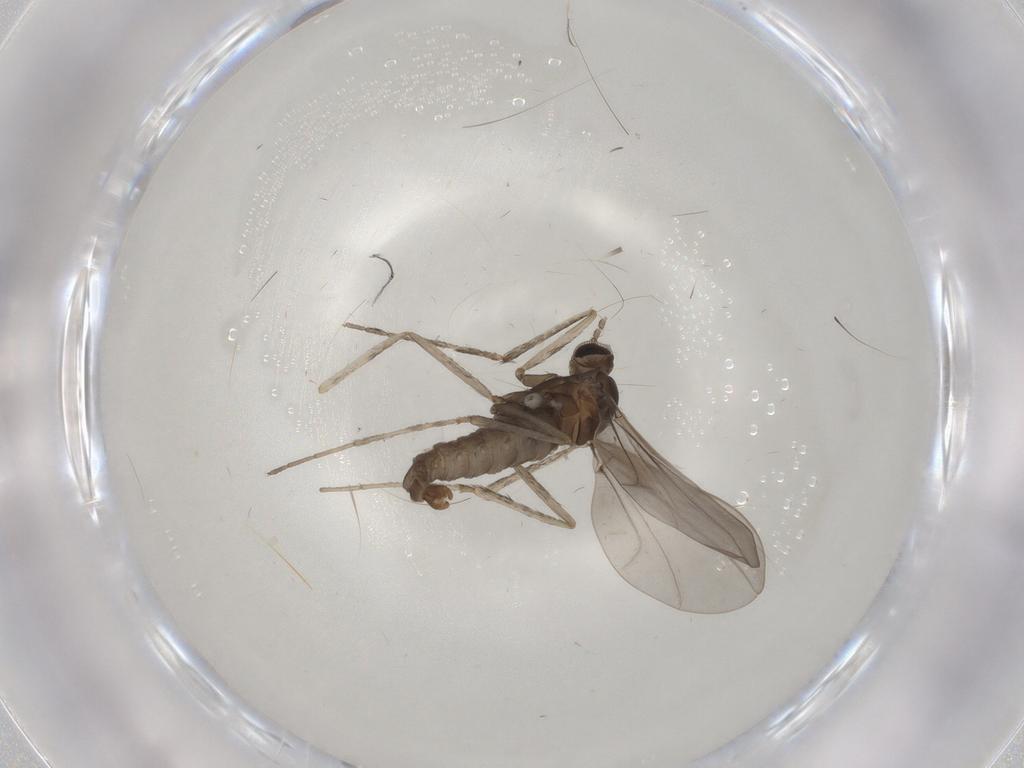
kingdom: Animalia
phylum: Arthropoda
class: Insecta
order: Diptera
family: Cecidomyiidae
